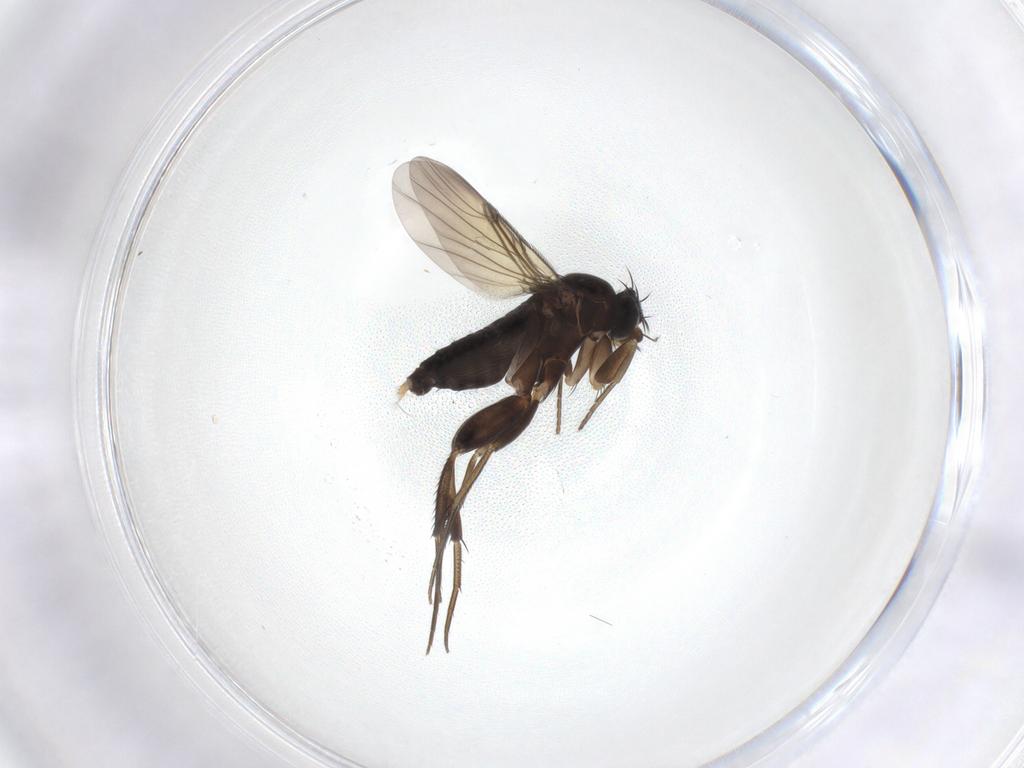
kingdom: Animalia
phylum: Arthropoda
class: Insecta
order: Diptera
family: Phoridae
